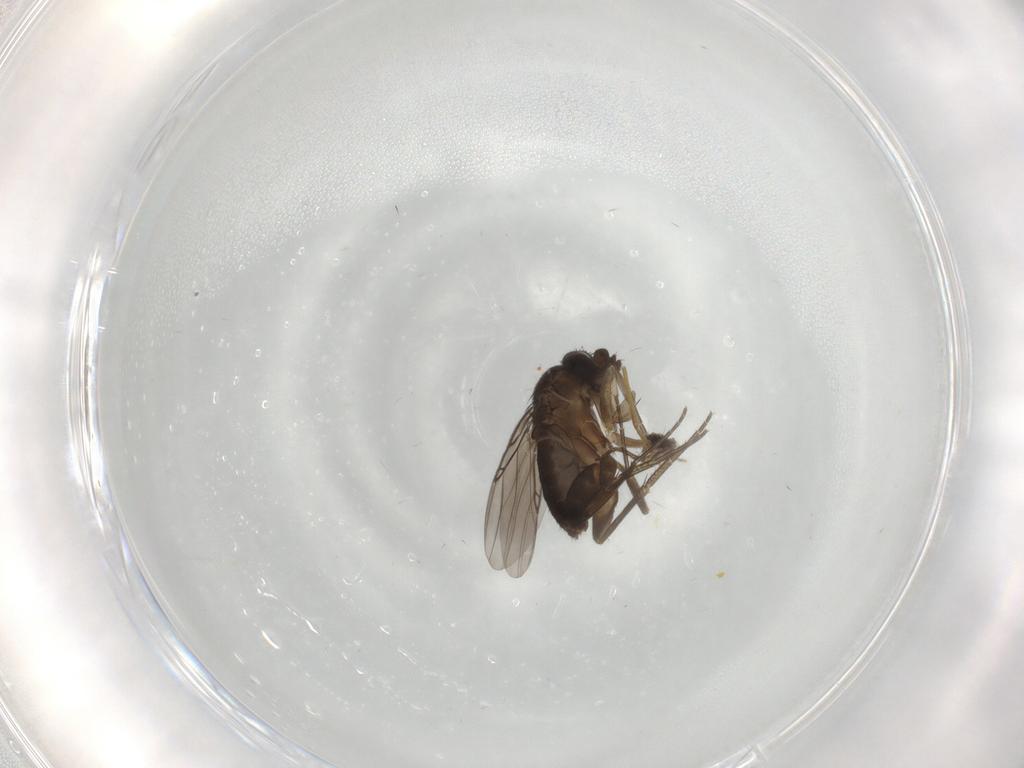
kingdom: Animalia
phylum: Arthropoda
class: Insecta
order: Diptera
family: Phoridae
